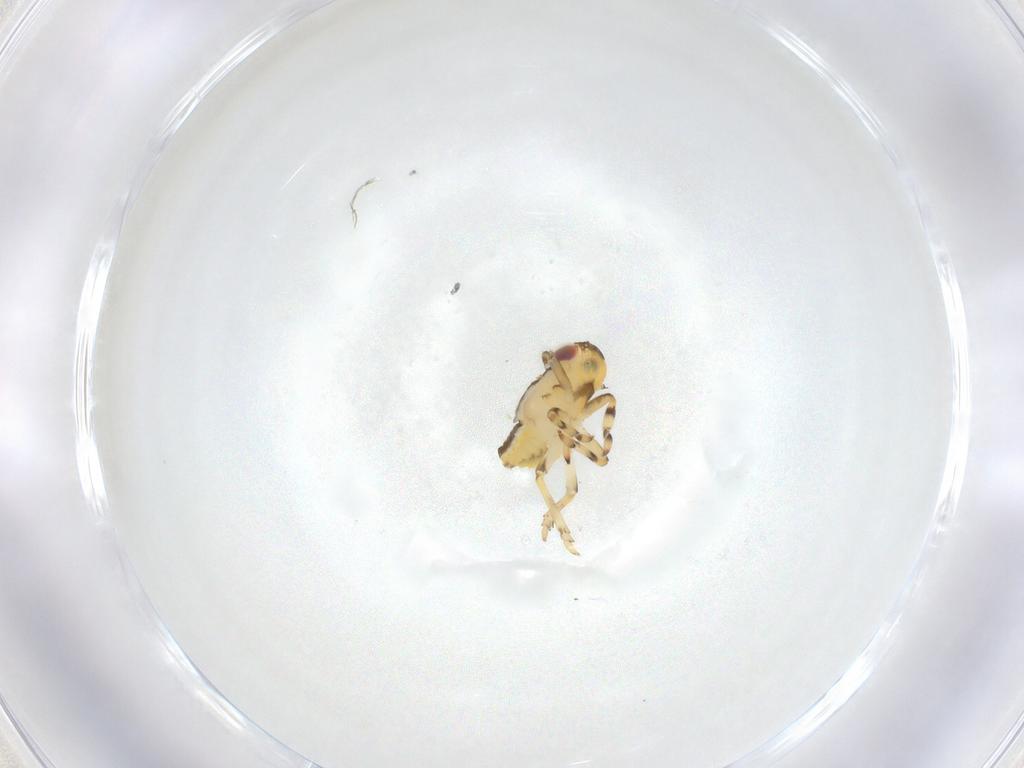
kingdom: Animalia
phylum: Arthropoda
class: Insecta
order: Hemiptera
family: Issidae
